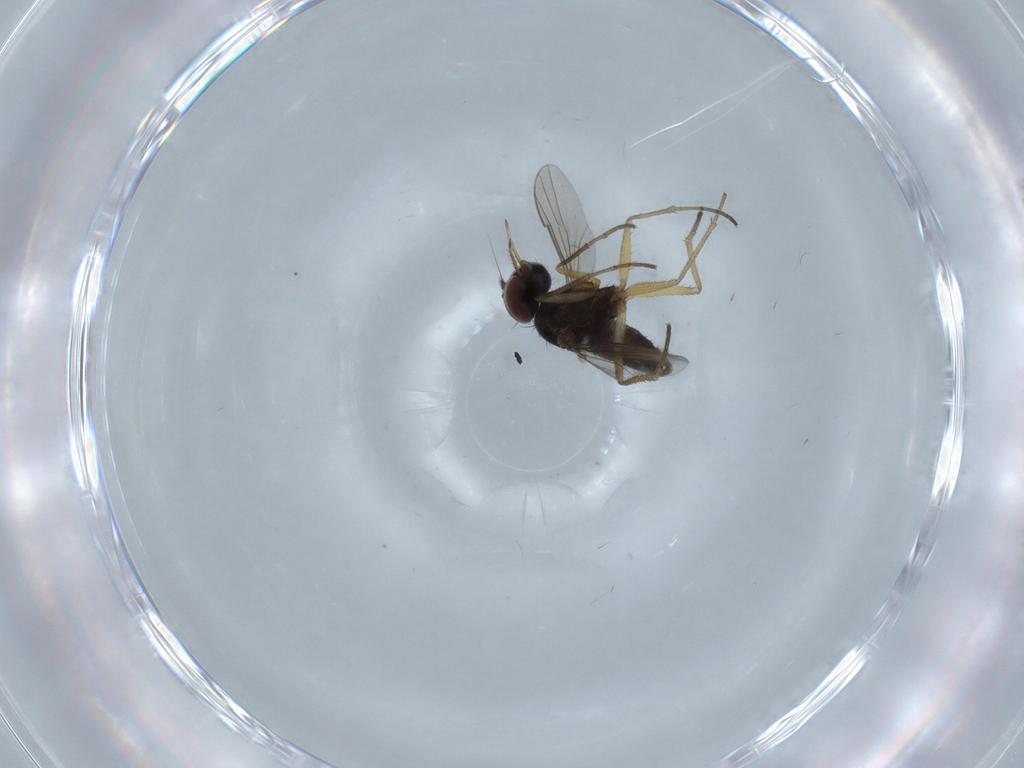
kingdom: Animalia
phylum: Arthropoda
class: Insecta
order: Diptera
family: Dolichopodidae
